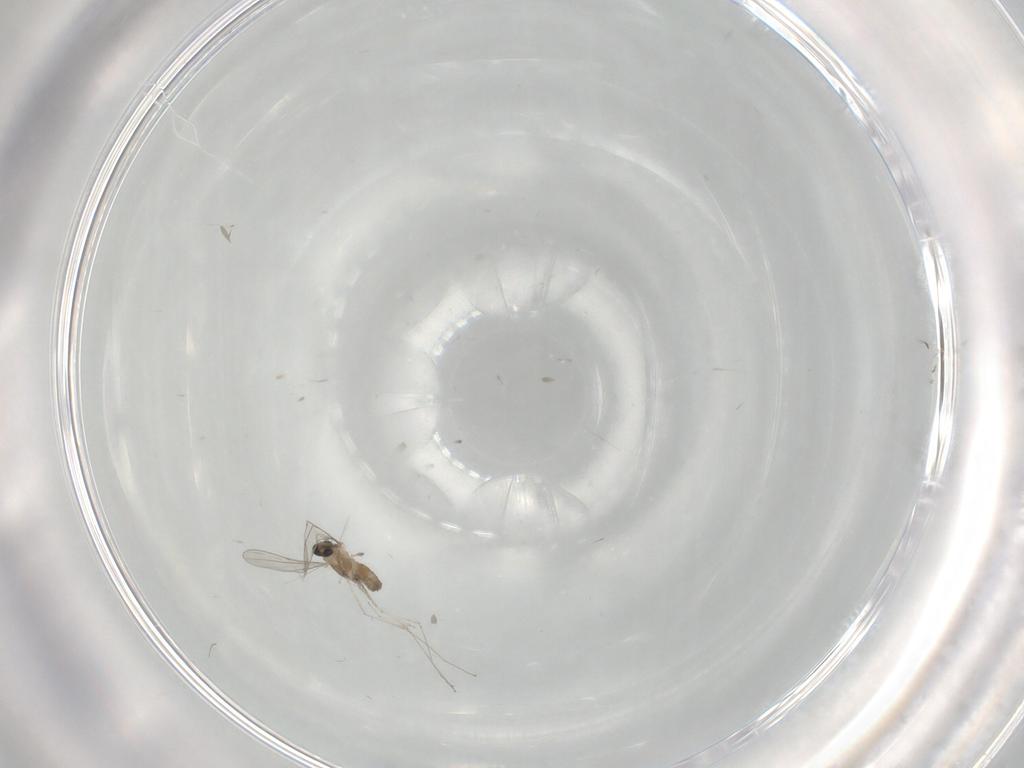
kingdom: Animalia
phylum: Arthropoda
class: Insecta
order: Diptera
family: Cecidomyiidae
